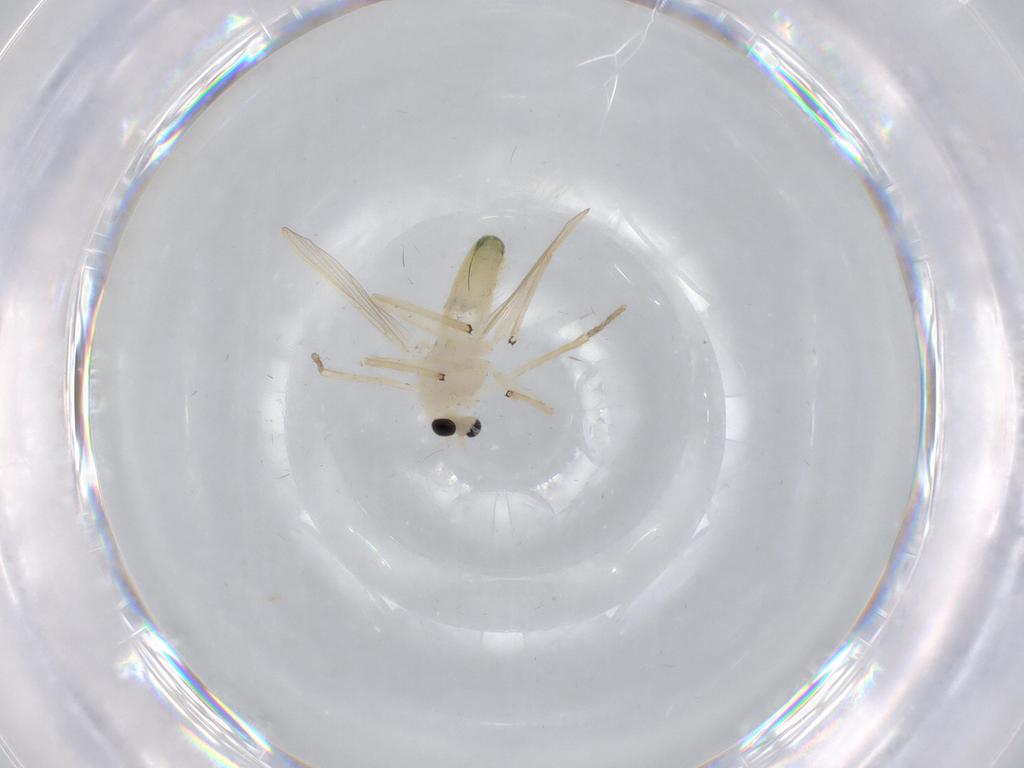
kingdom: Animalia
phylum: Arthropoda
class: Insecta
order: Diptera
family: Chironomidae
